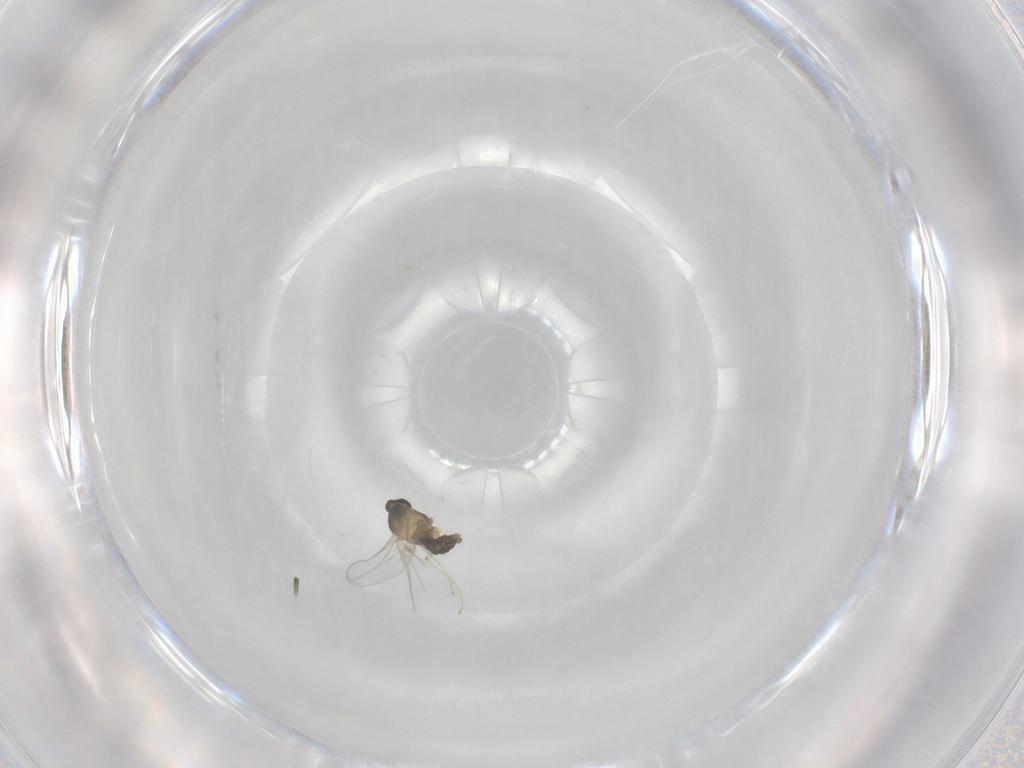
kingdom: Animalia
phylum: Arthropoda
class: Insecta
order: Diptera
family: Cecidomyiidae
